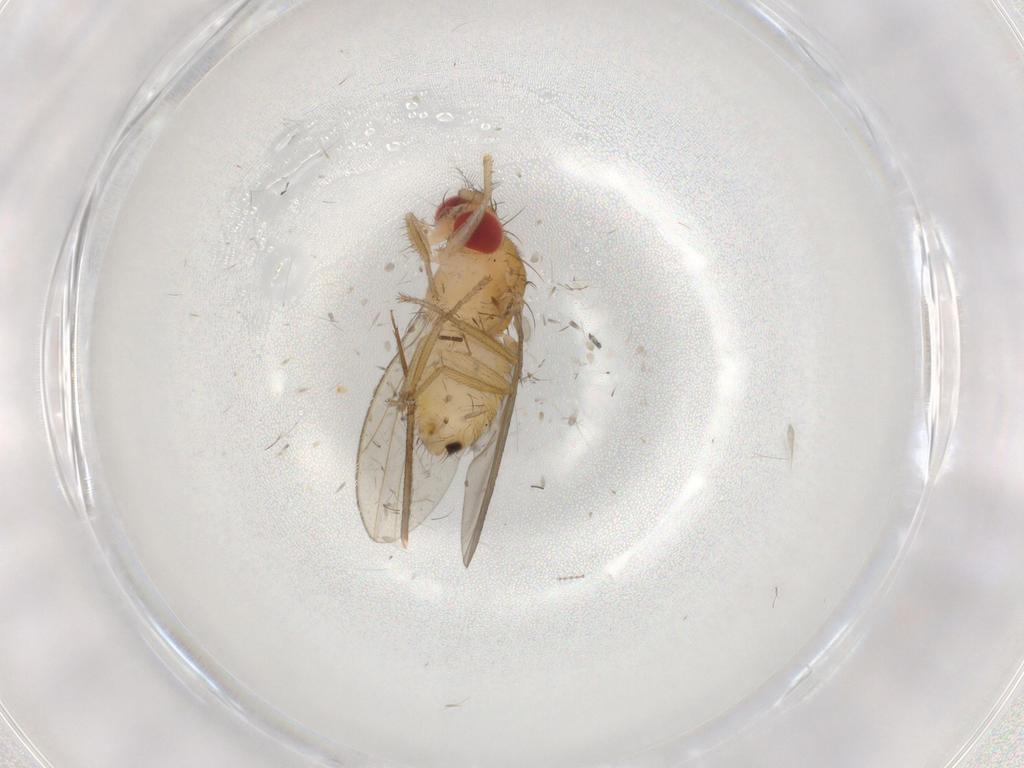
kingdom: Animalia
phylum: Arthropoda
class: Insecta
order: Diptera
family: Drosophilidae
